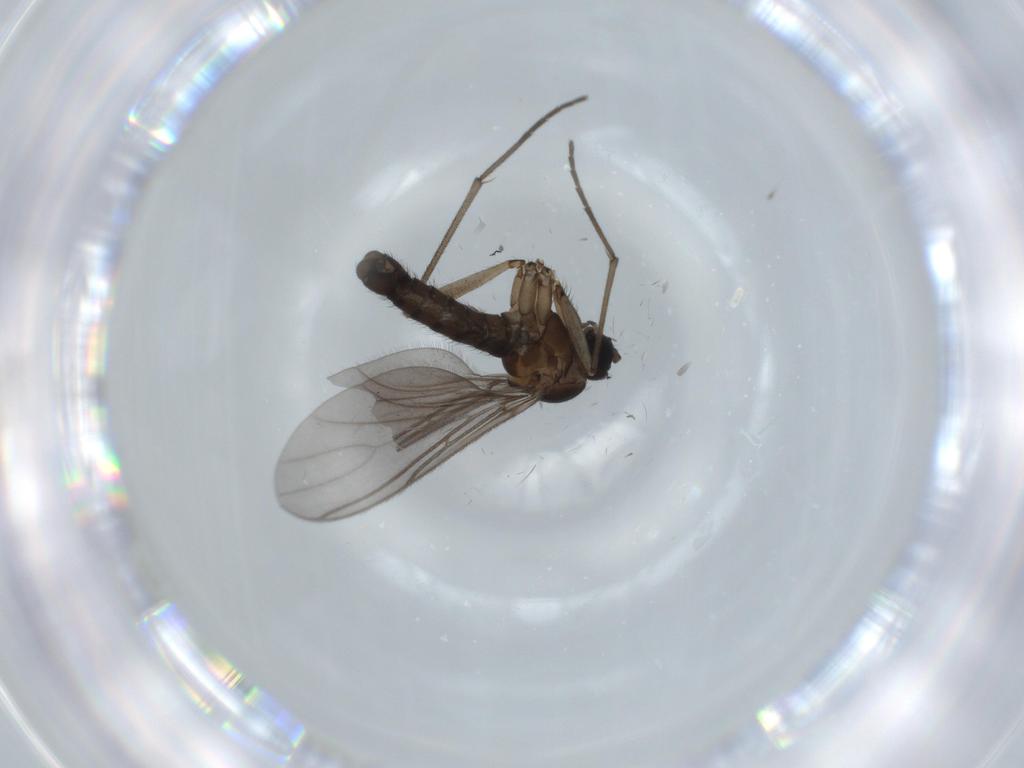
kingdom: Animalia
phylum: Arthropoda
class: Insecta
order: Diptera
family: Sciaridae
